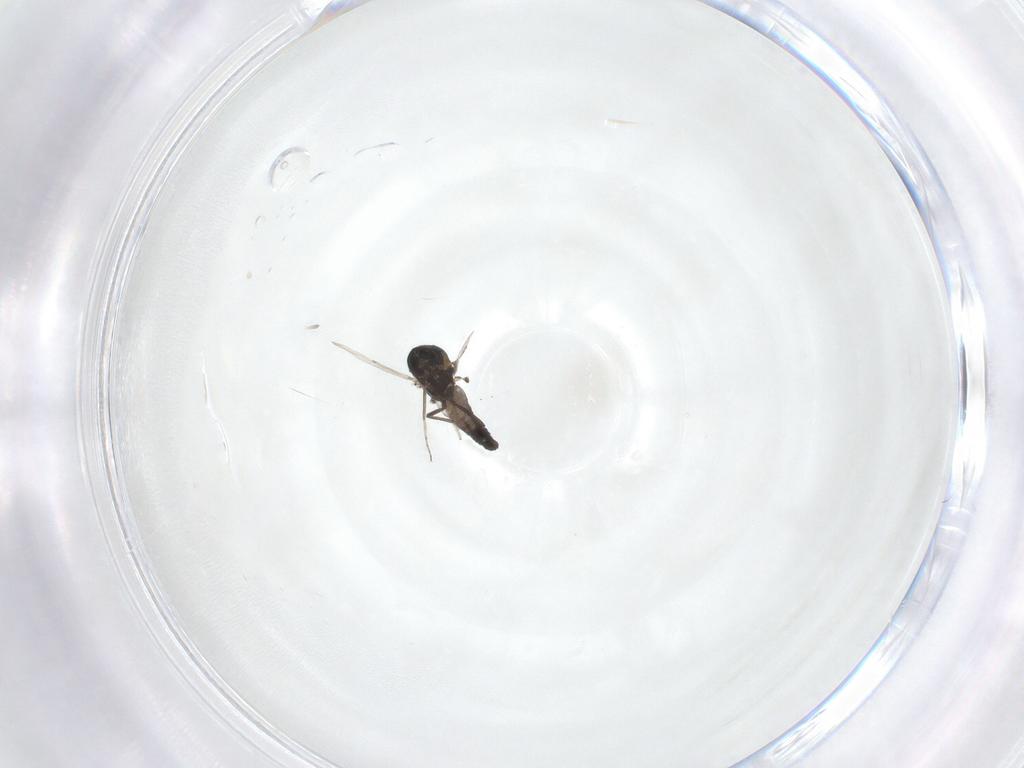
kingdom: Animalia
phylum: Arthropoda
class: Insecta
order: Diptera
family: Ceratopogonidae
